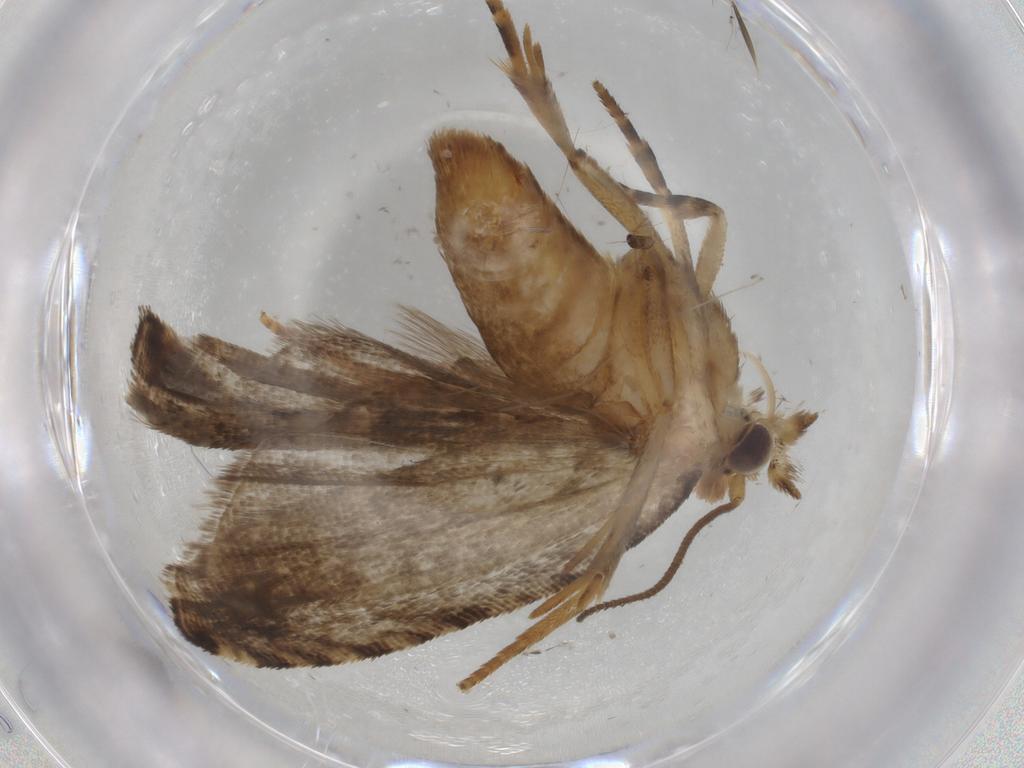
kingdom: Animalia
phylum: Arthropoda
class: Insecta
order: Lepidoptera
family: Tortricidae
